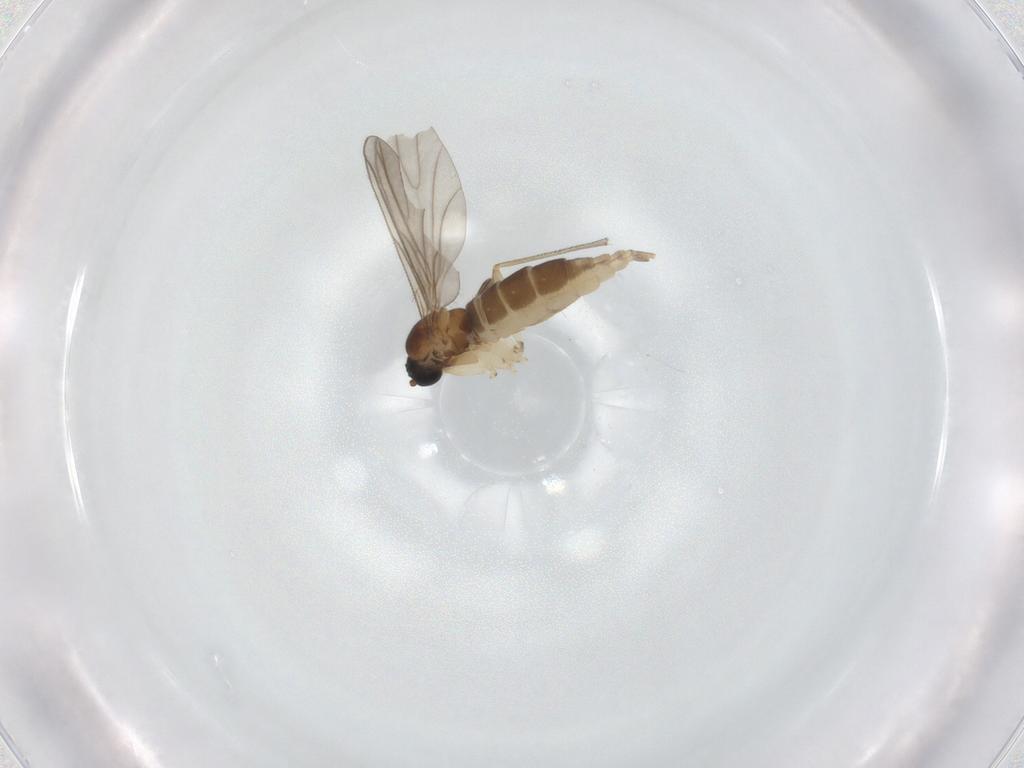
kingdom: Animalia
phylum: Arthropoda
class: Insecta
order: Diptera
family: Sciaridae
